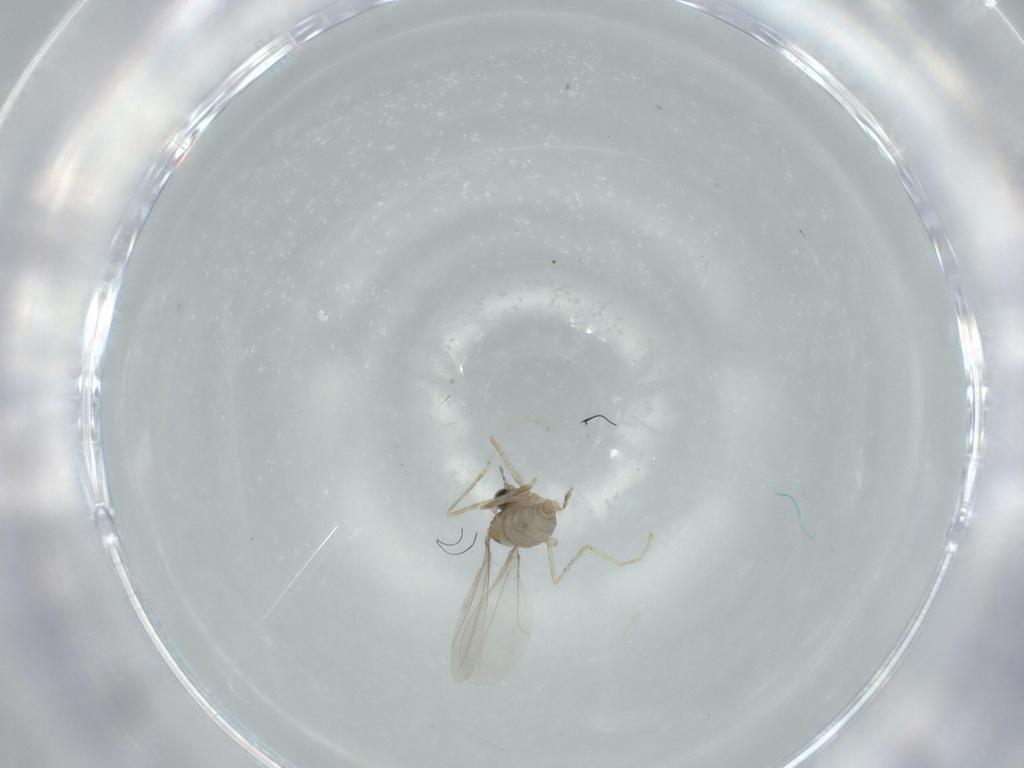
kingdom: Animalia
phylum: Arthropoda
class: Insecta
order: Diptera
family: Cecidomyiidae
